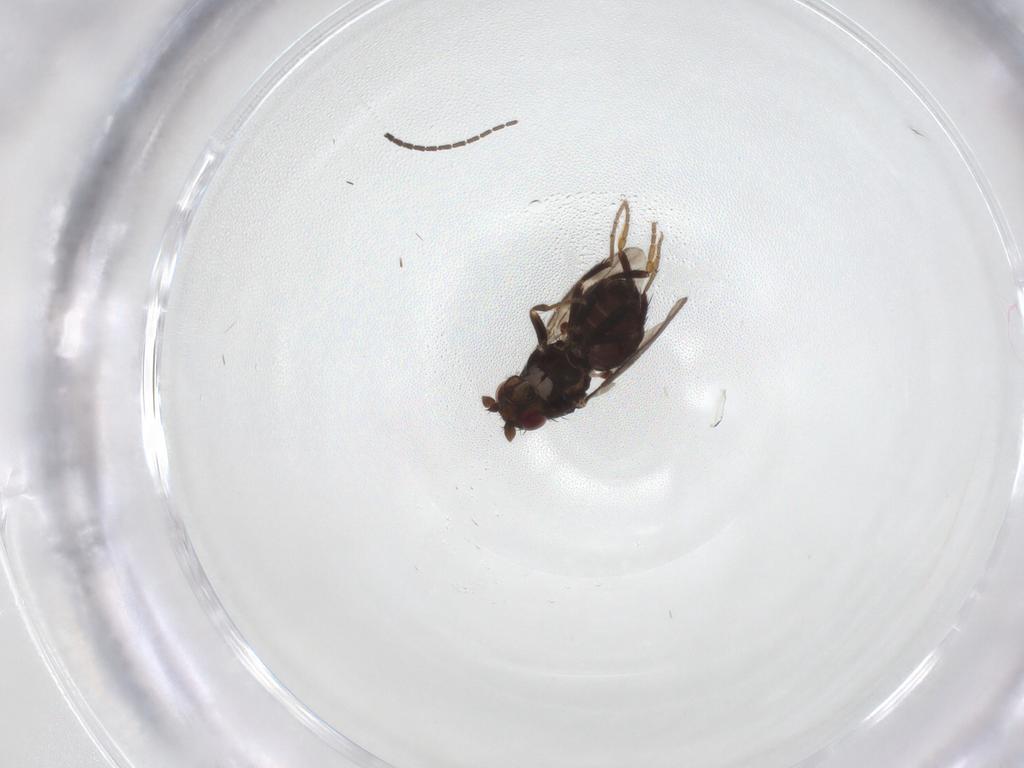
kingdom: Animalia
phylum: Arthropoda
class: Insecta
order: Diptera
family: Sphaeroceridae
